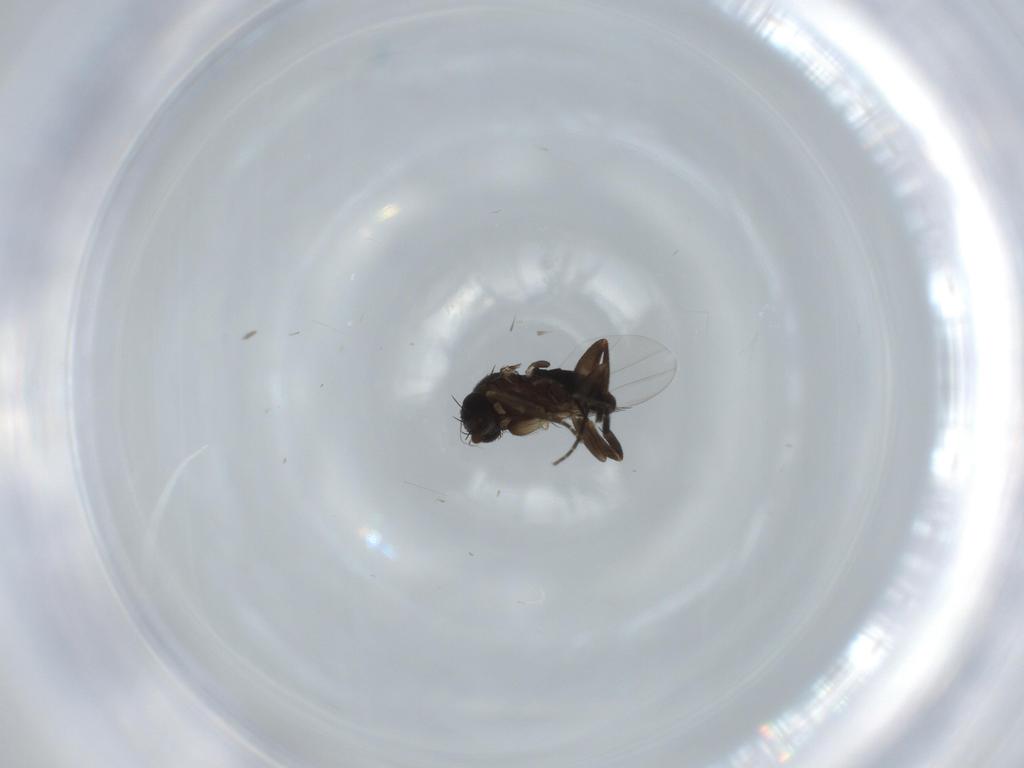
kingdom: Animalia
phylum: Arthropoda
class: Insecta
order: Diptera
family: Phoridae
